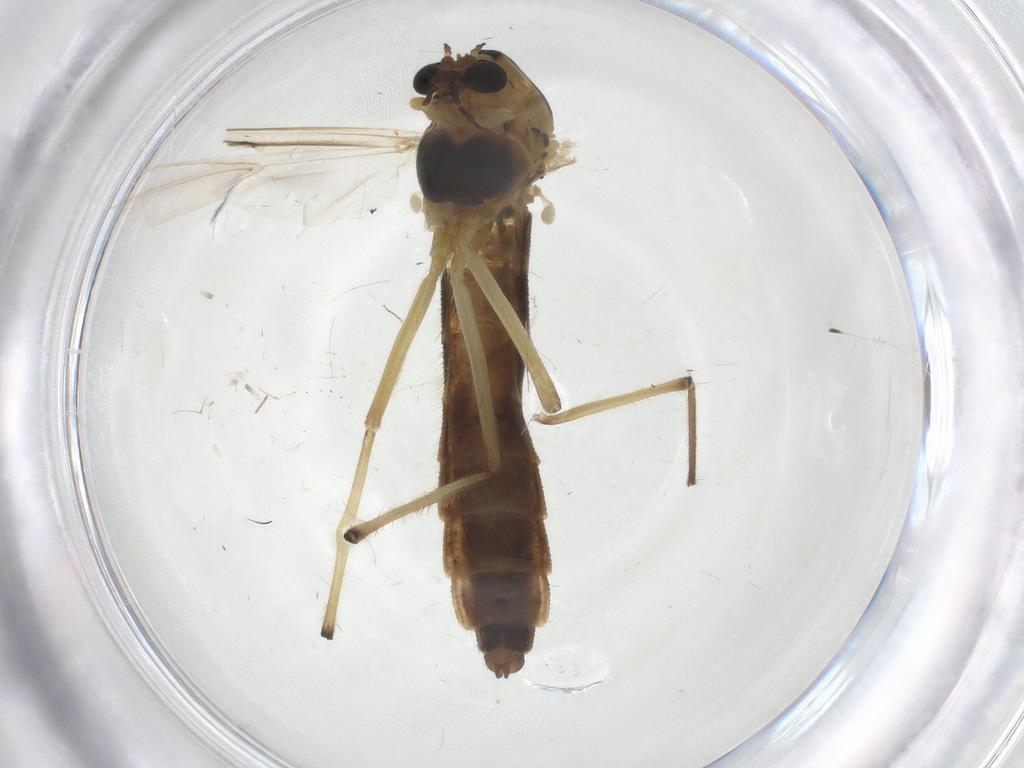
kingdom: Animalia
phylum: Arthropoda
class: Insecta
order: Diptera
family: Chironomidae
